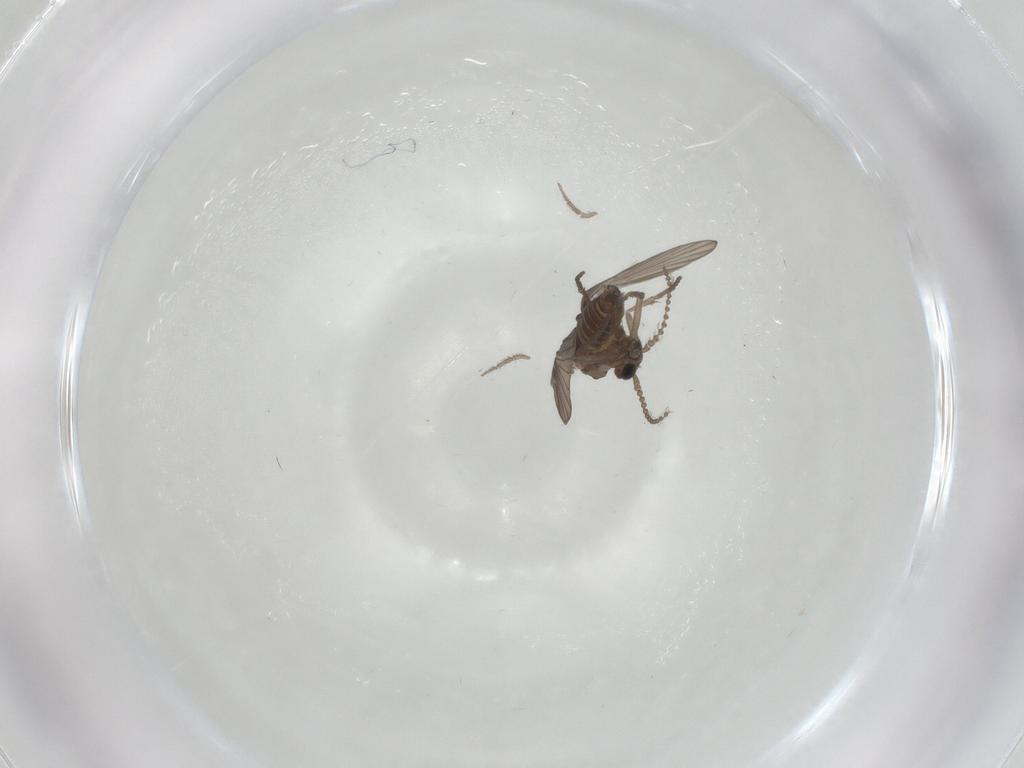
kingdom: Animalia
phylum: Arthropoda
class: Insecta
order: Diptera
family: Psychodidae
